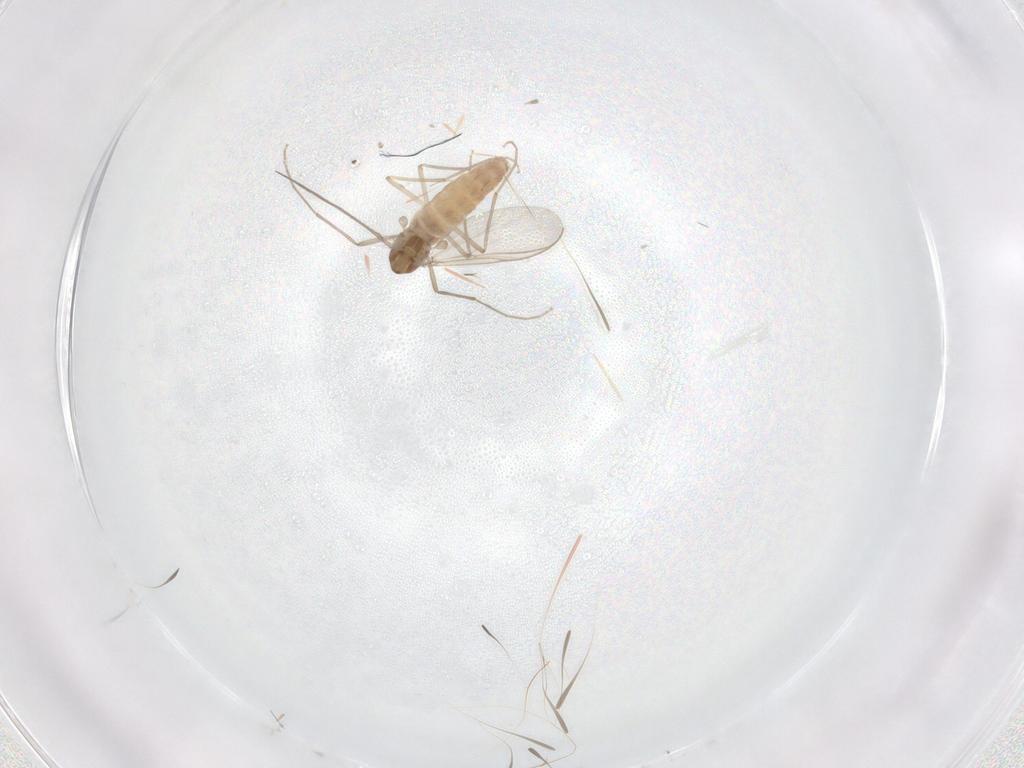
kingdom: Animalia
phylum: Arthropoda
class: Insecta
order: Diptera
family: Chironomidae
